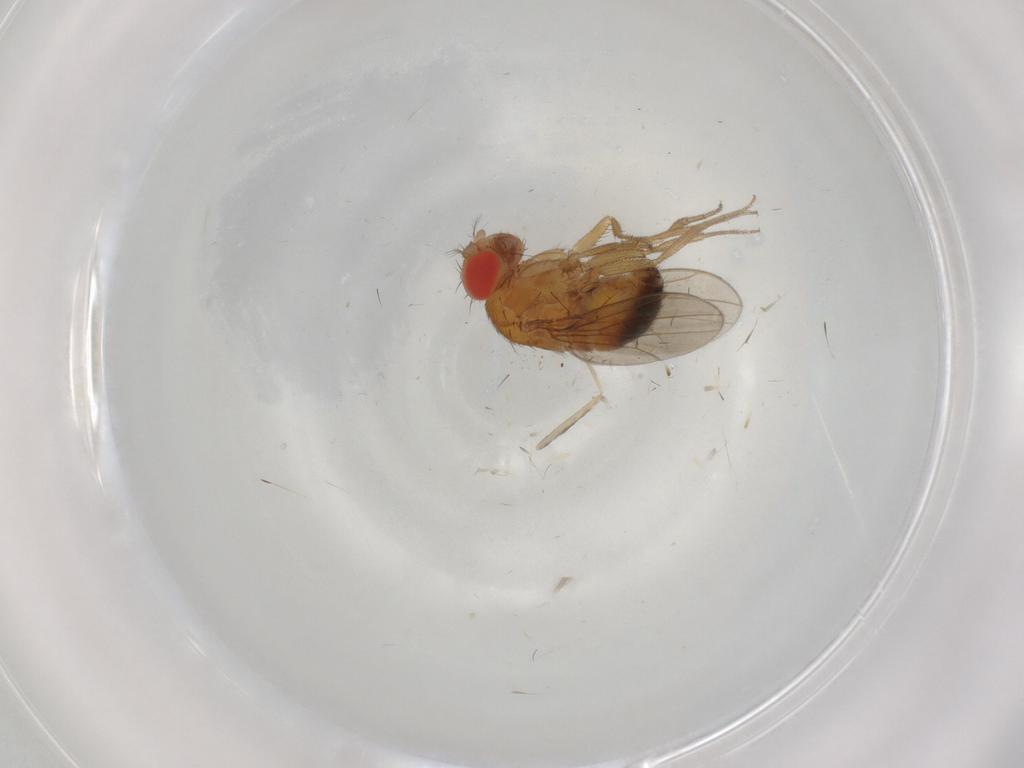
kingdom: Animalia
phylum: Arthropoda
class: Insecta
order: Diptera
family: Drosophilidae
